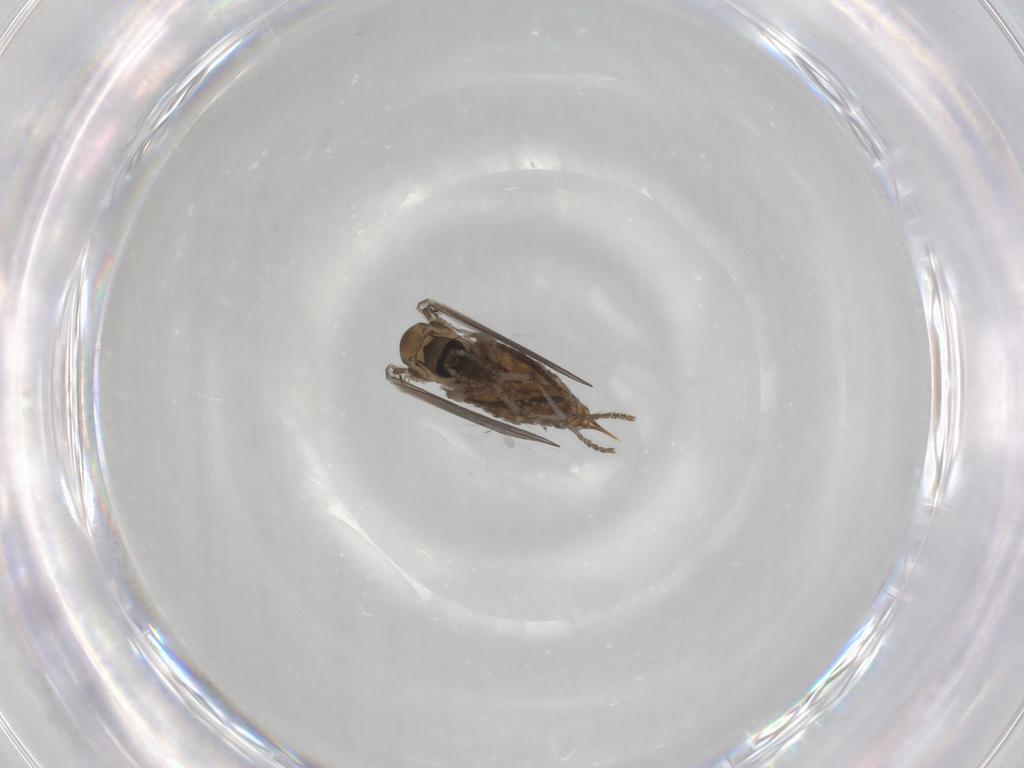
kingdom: Animalia
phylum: Arthropoda
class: Insecta
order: Diptera
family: Psychodidae
